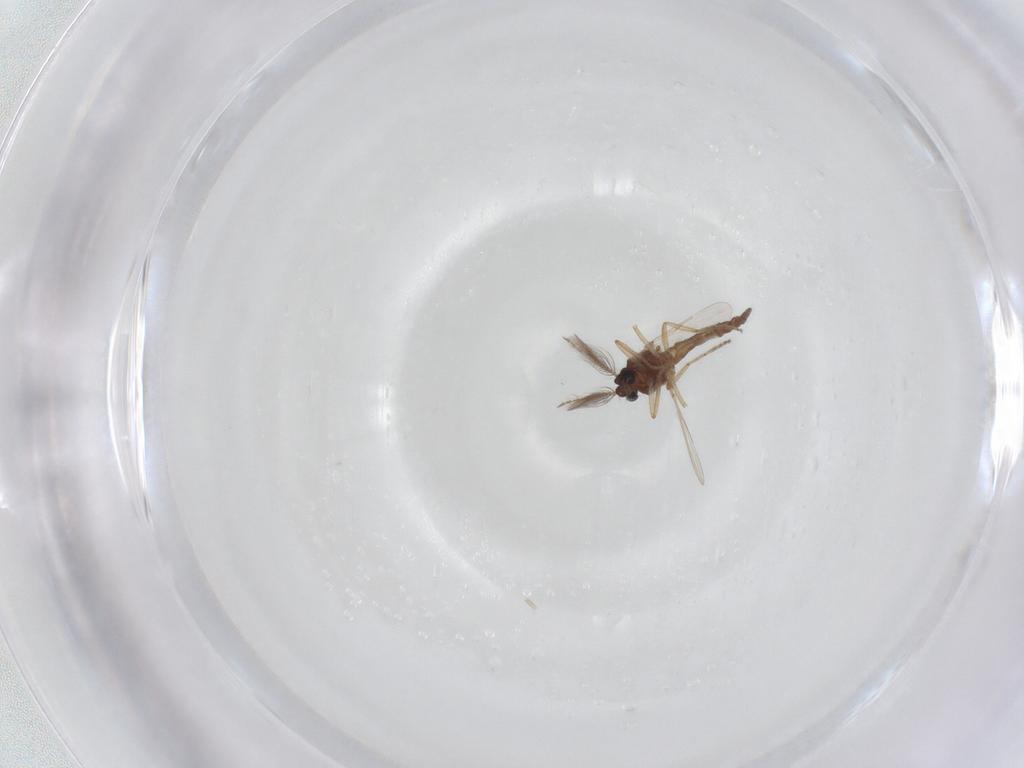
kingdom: Animalia
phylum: Arthropoda
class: Insecta
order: Diptera
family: Ceratopogonidae
